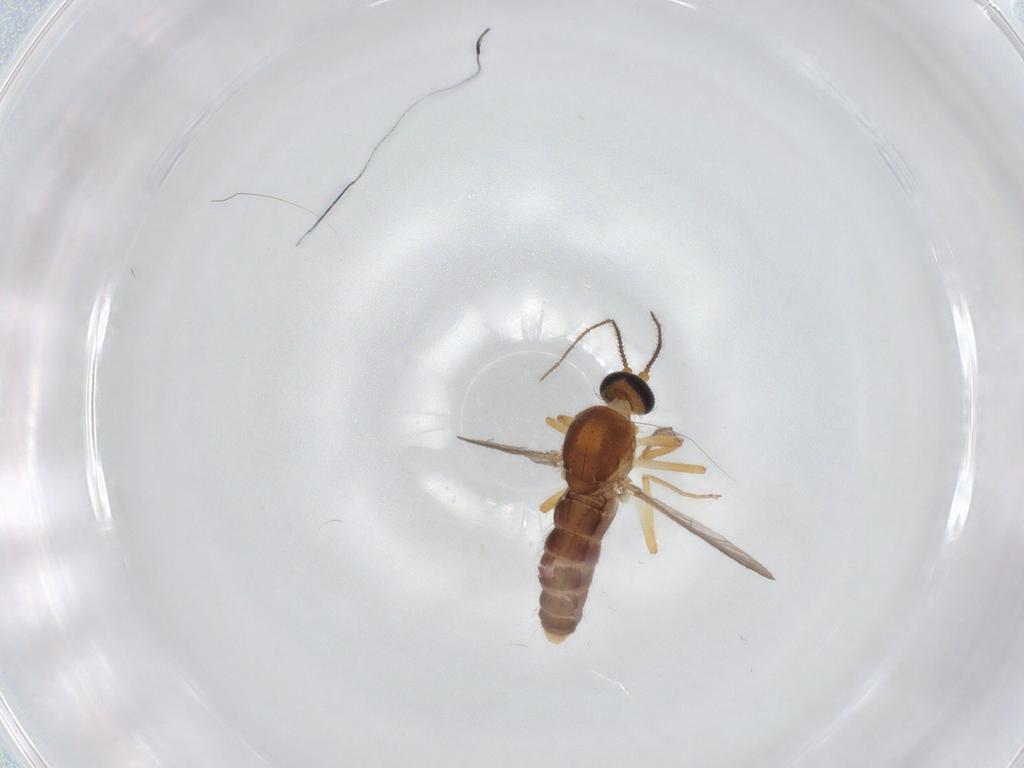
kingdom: Animalia
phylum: Arthropoda
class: Insecta
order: Diptera
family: Ceratopogonidae
